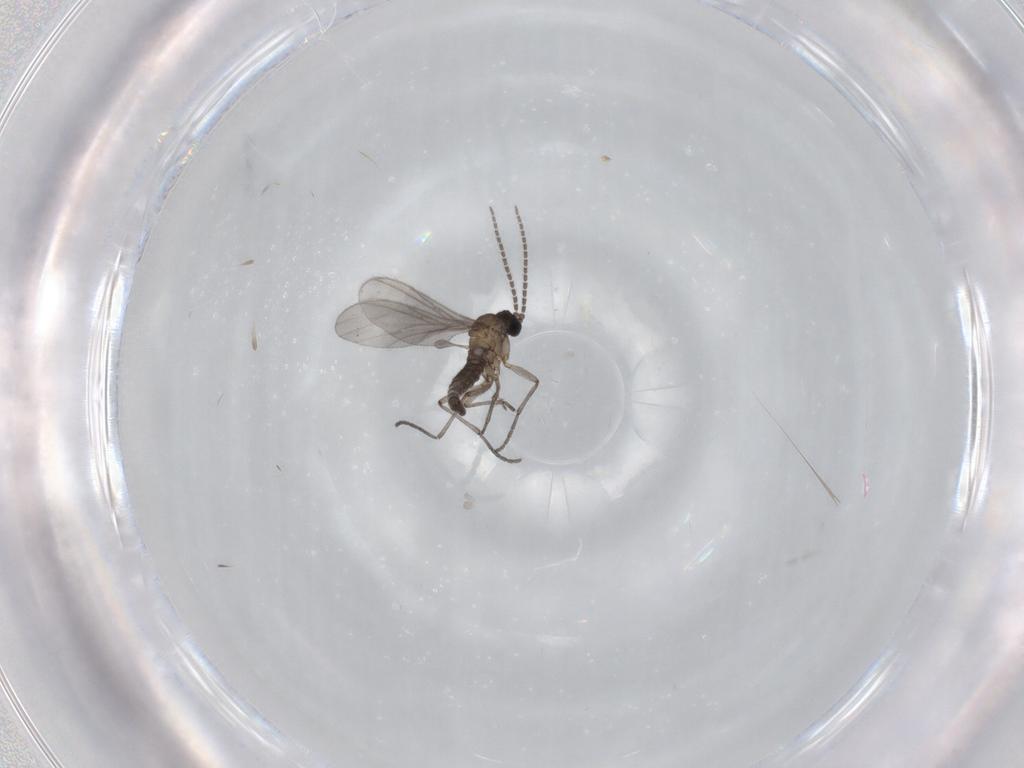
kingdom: Animalia
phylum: Arthropoda
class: Insecta
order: Diptera
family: Sciaridae
